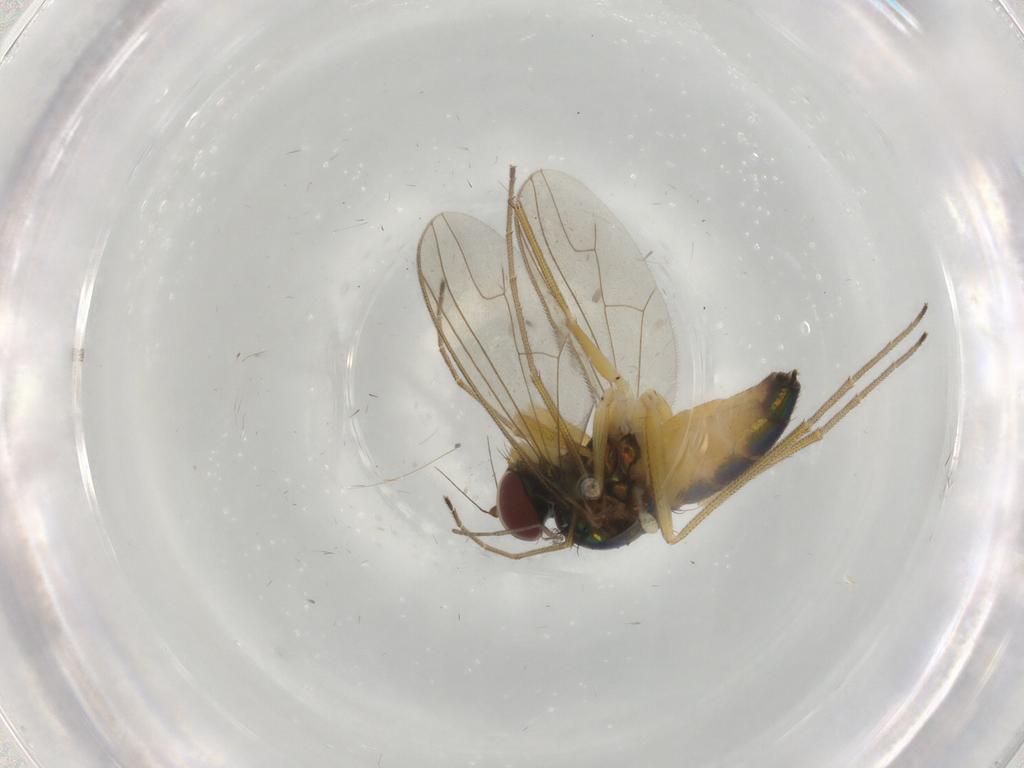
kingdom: Animalia
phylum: Arthropoda
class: Insecta
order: Diptera
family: Dolichopodidae
